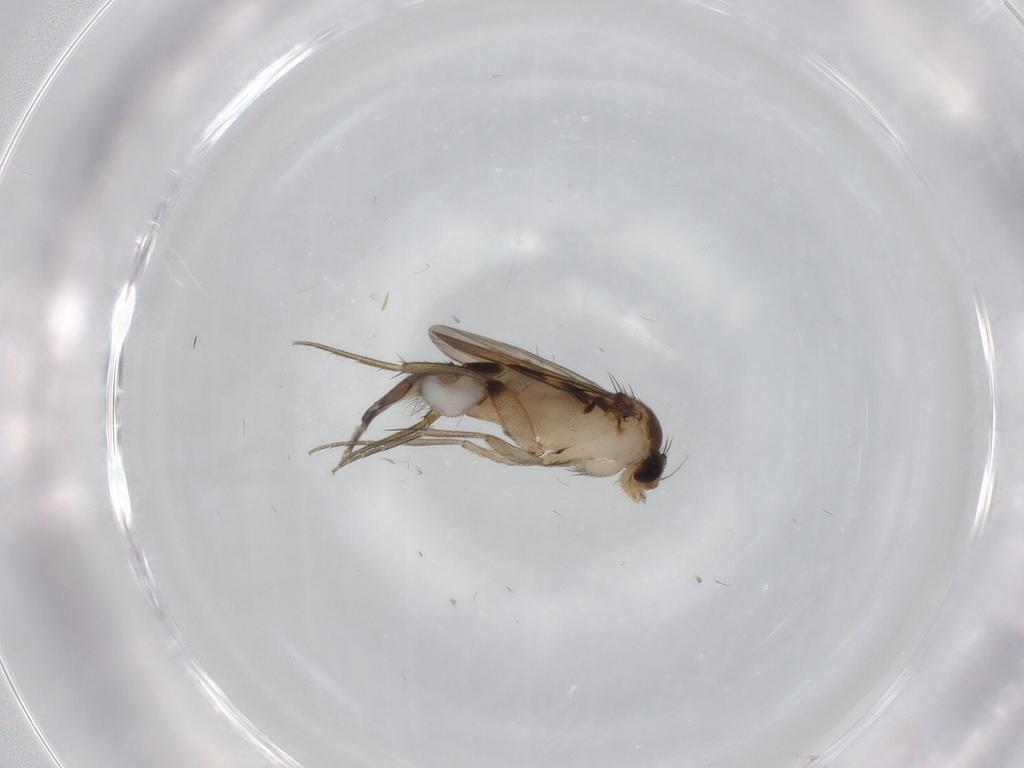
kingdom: Animalia
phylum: Arthropoda
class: Insecta
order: Diptera
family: Phoridae
